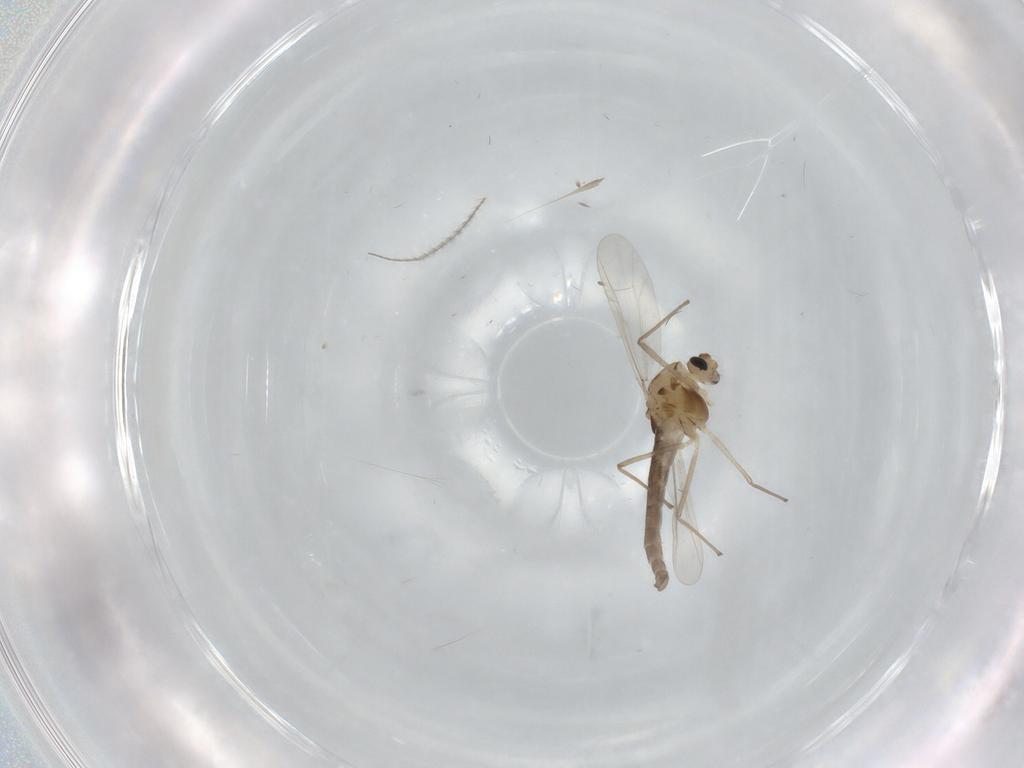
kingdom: Animalia
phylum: Arthropoda
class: Insecta
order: Diptera
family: Chironomidae
